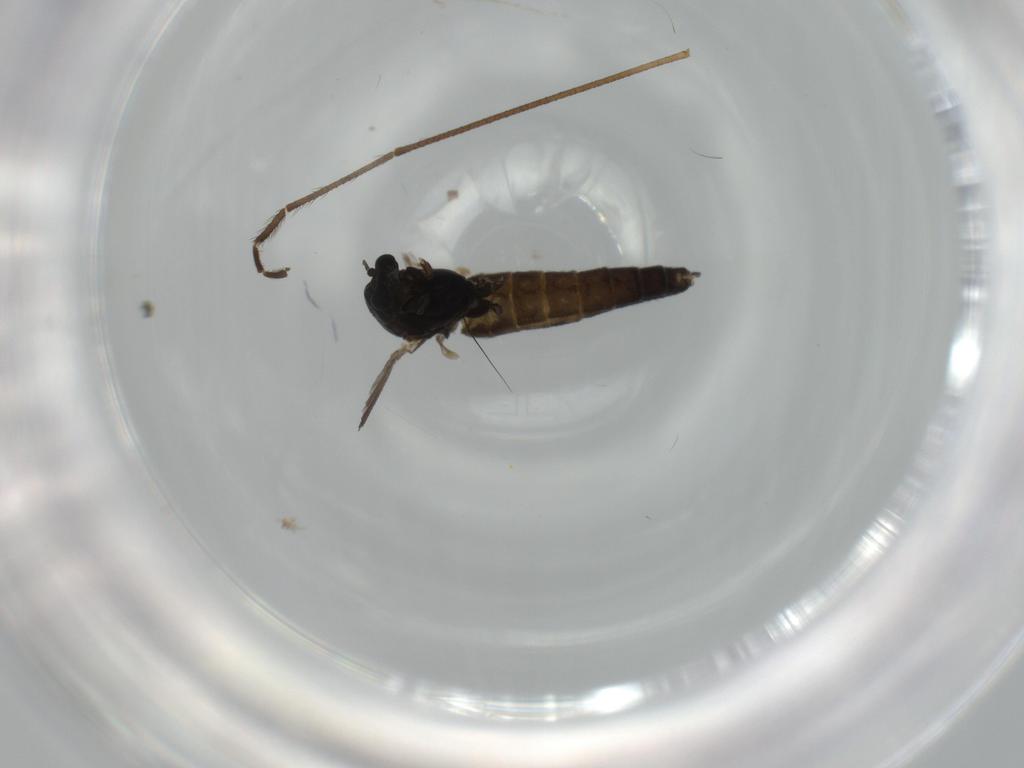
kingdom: Animalia
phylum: Arthropoda
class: Insecta
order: Diptera
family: Limoniidae
